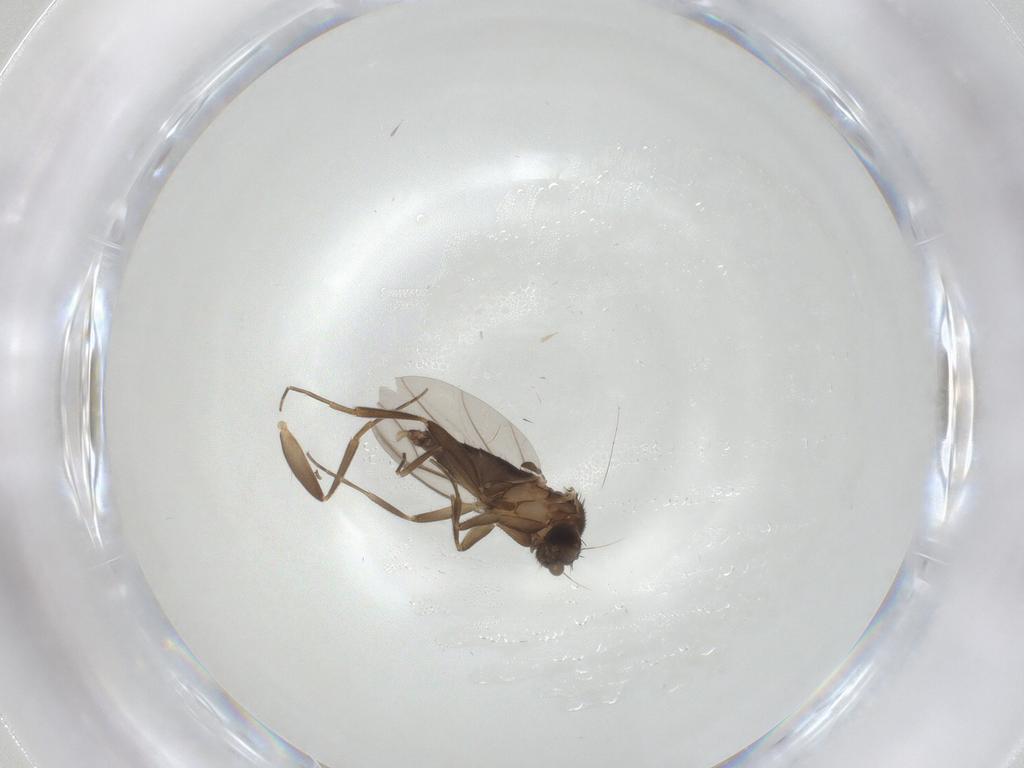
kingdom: Animalia
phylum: Arthropoda
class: Insecta
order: Diptera
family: Phoridae
